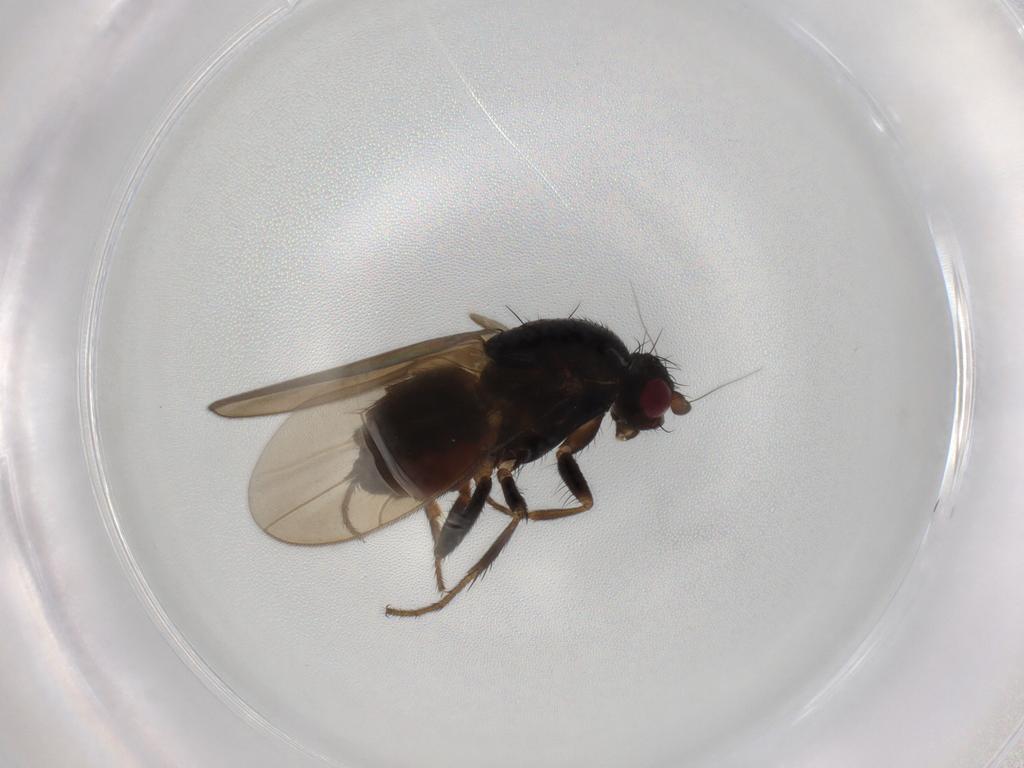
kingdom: Animalia
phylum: Arthropoda
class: Insecta
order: Diptera
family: Sphaeroceridae
